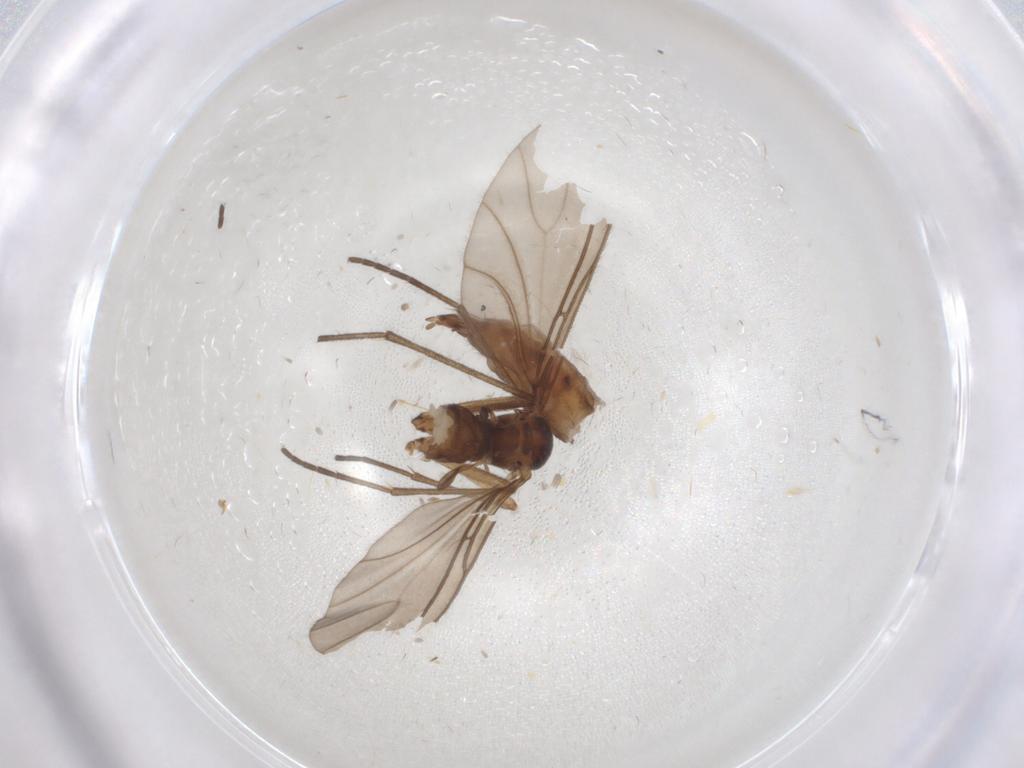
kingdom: Animalia
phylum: Arthropoda
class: Insecta
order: Diptera
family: Sciaridae
